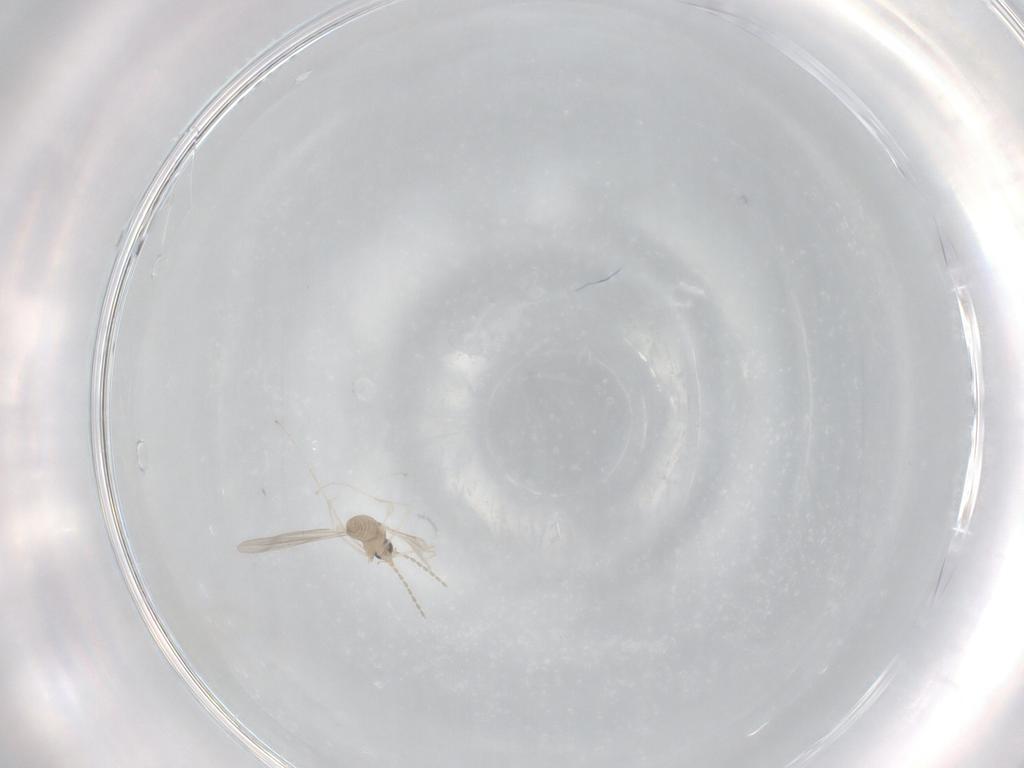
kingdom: Animalia
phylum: Arthropoda
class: Insecta
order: Diptera
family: Cecidomyiidae
